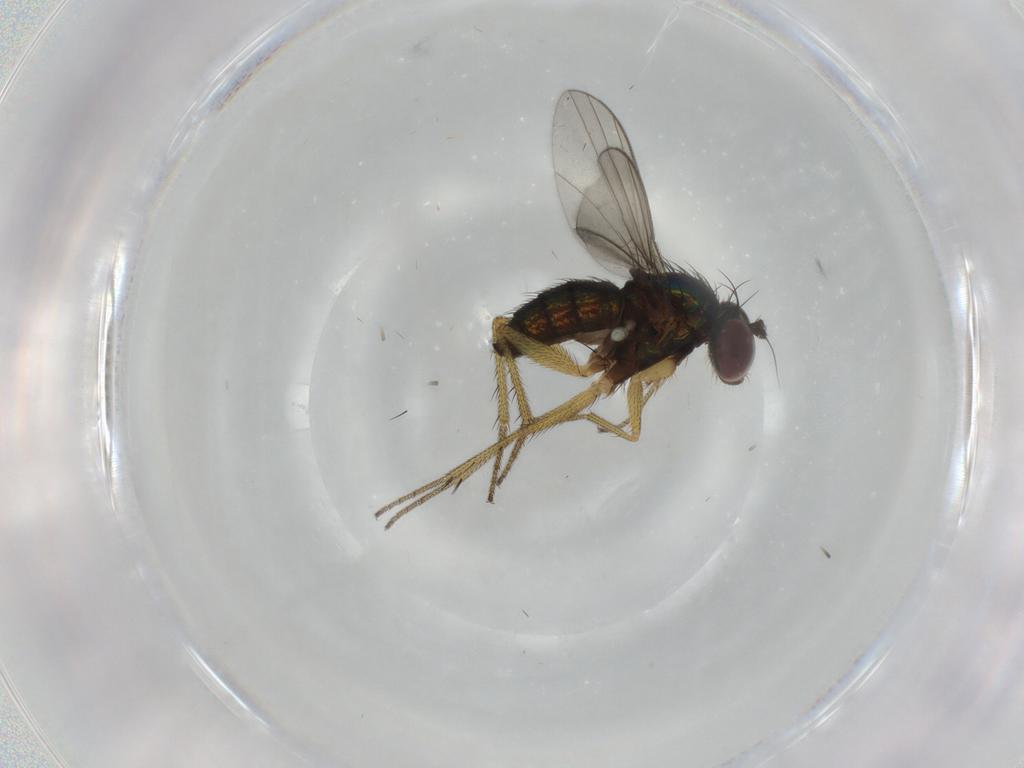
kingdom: Animalia
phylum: Arthropoda
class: Insecta
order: Diptera
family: Dolichopodidae
